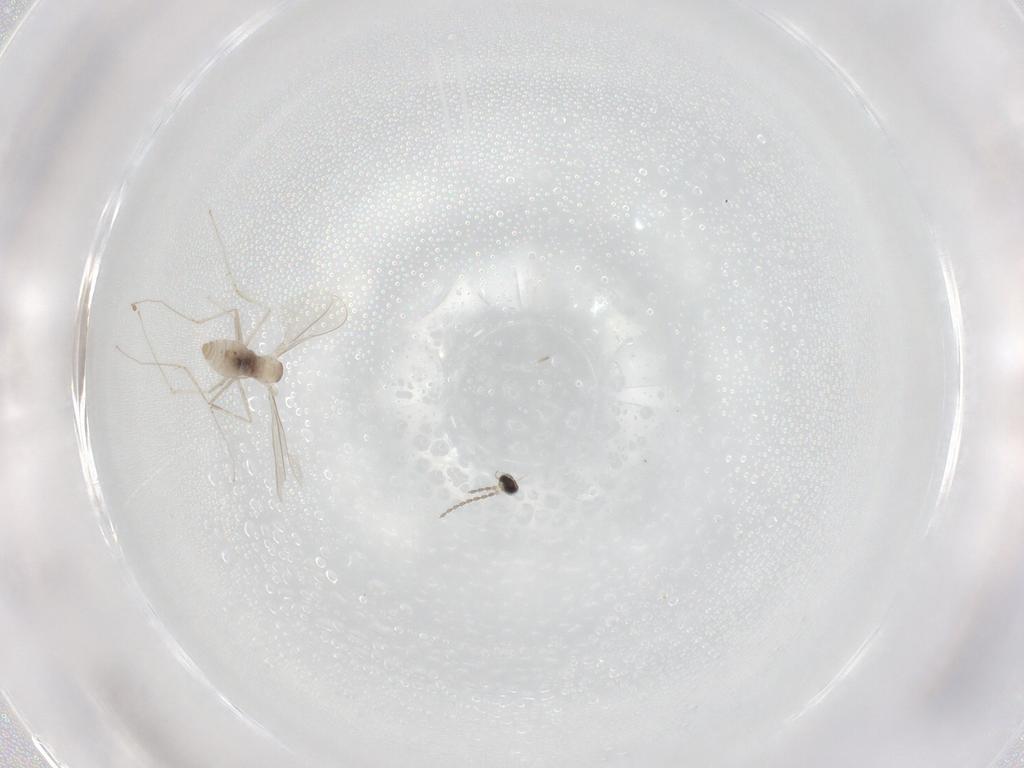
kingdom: Animalia
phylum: Arthropoda
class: Insecta
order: Diptera
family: Cecidomyiidae
